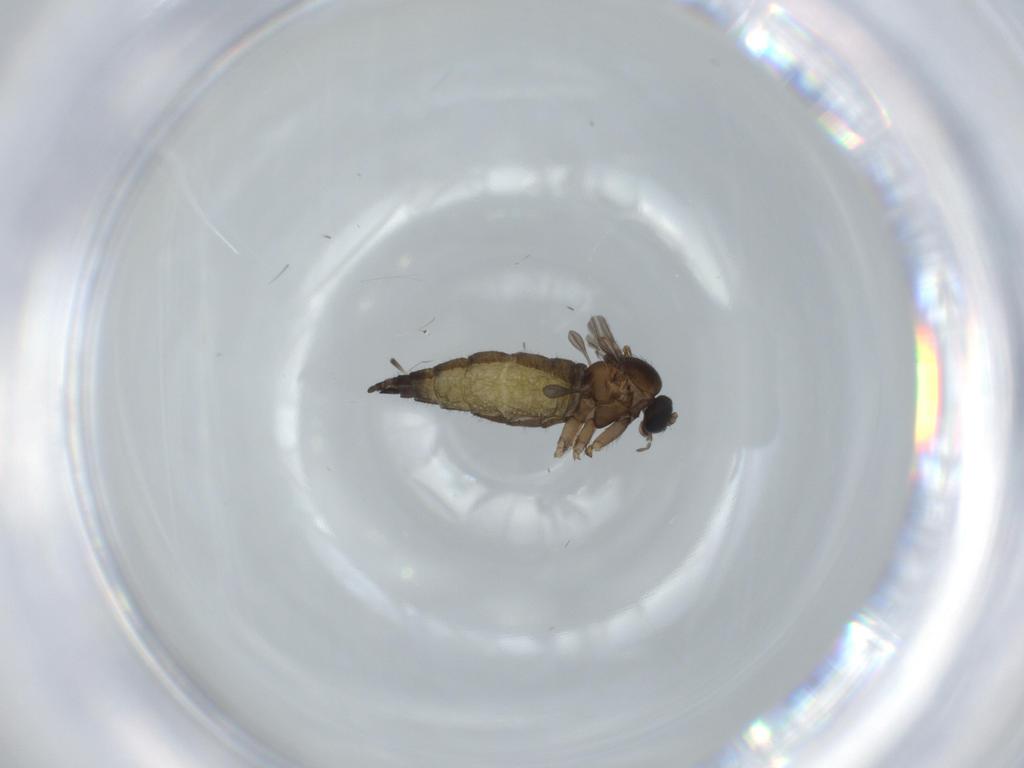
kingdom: Animalia
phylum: Arthropoda
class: Insecta
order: Diptera
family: Sciaridae
